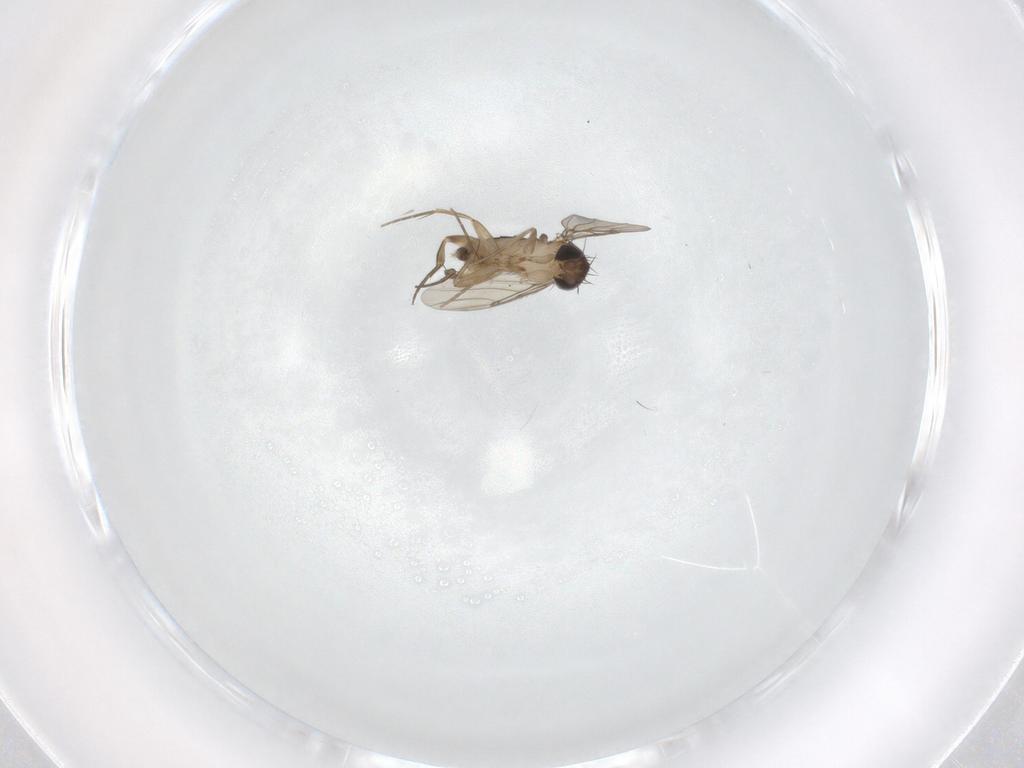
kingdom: Animalia
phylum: Arthropoda
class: Insecta
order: Diptera
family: Phoridae
